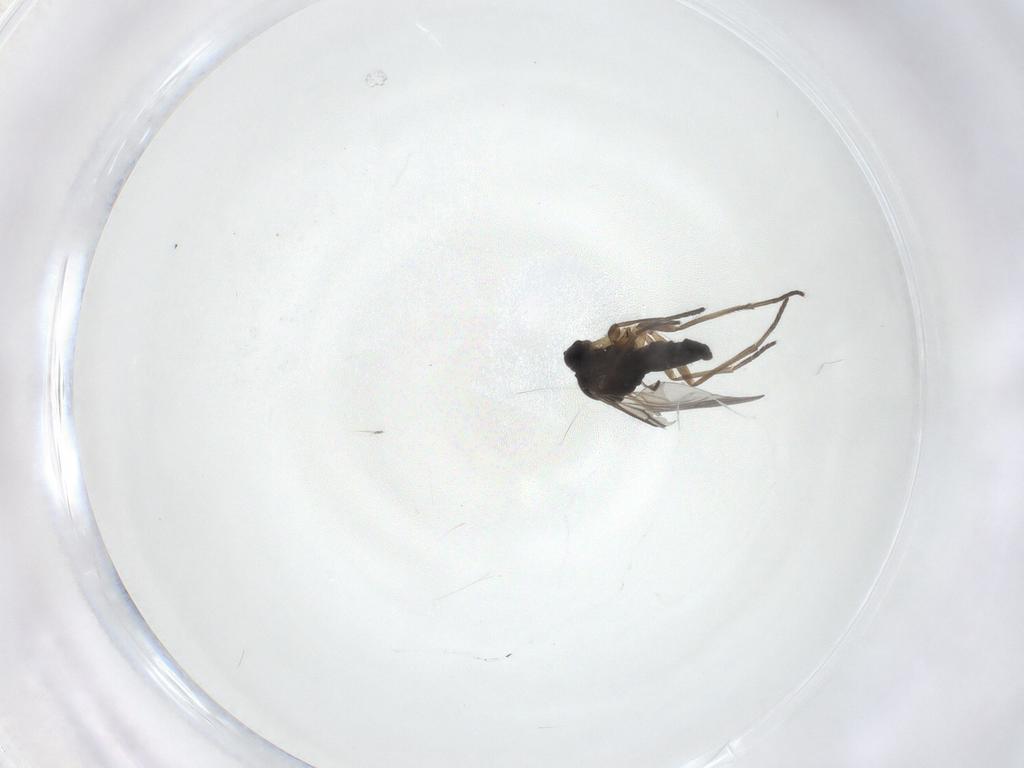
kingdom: Animalia
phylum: Arthropoda
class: Insecta
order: Diptera
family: Sciaridae
